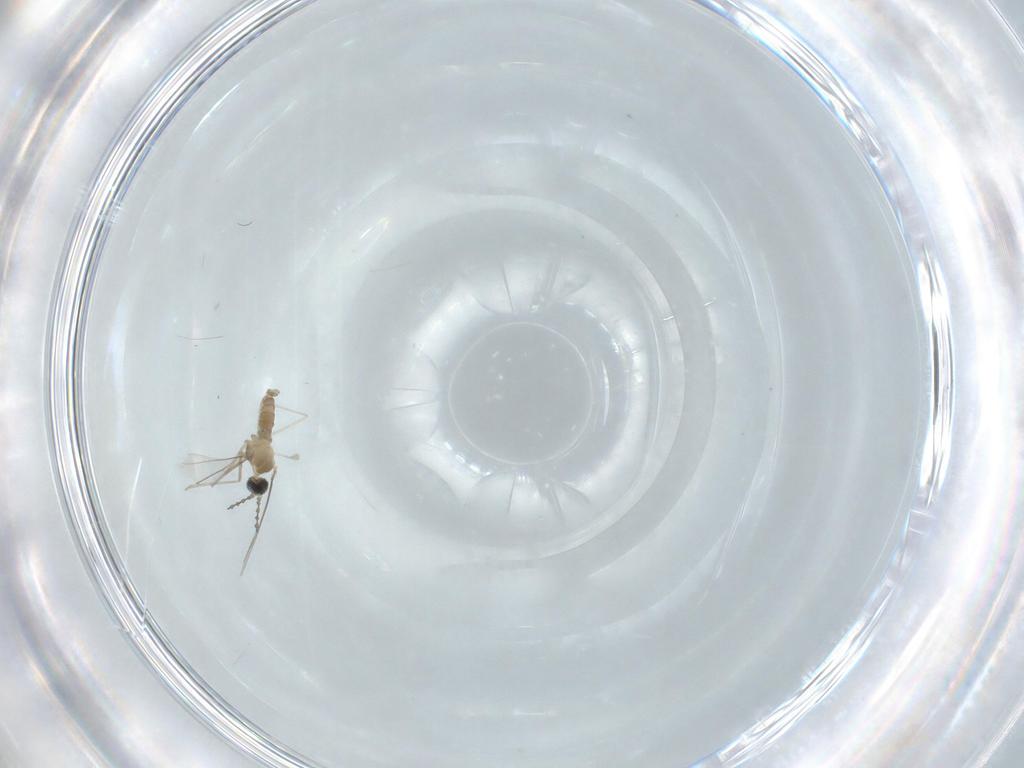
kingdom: Animalia
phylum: Arthropoda
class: Insecta
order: Diptera
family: Cecidomyiidae
